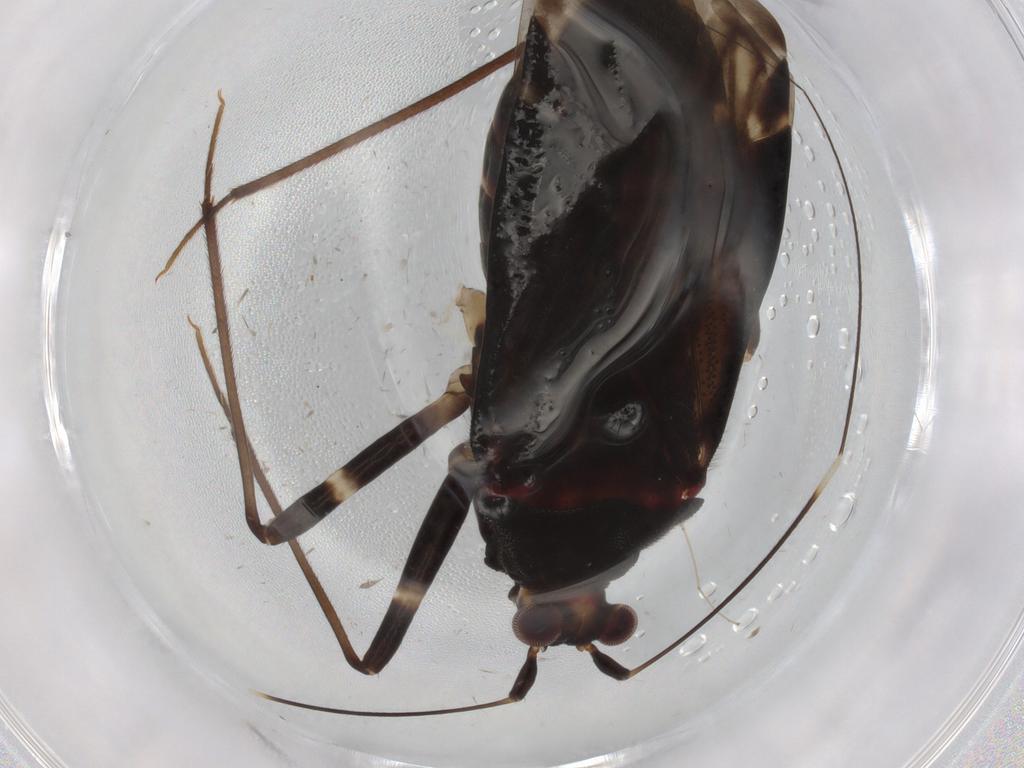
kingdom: Animalia
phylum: Arthropoda
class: Insecta
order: Hemiptera
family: Miridae
